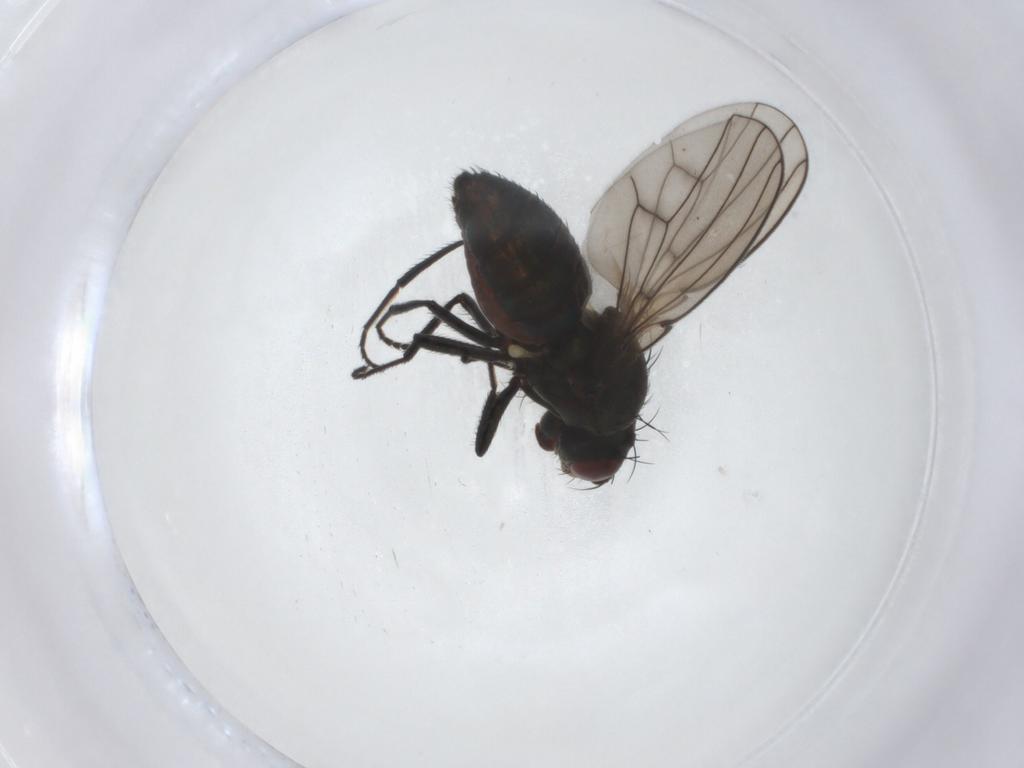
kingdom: Animalia
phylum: Arthropoda
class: Insecta
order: Diptera
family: Ephydridae
